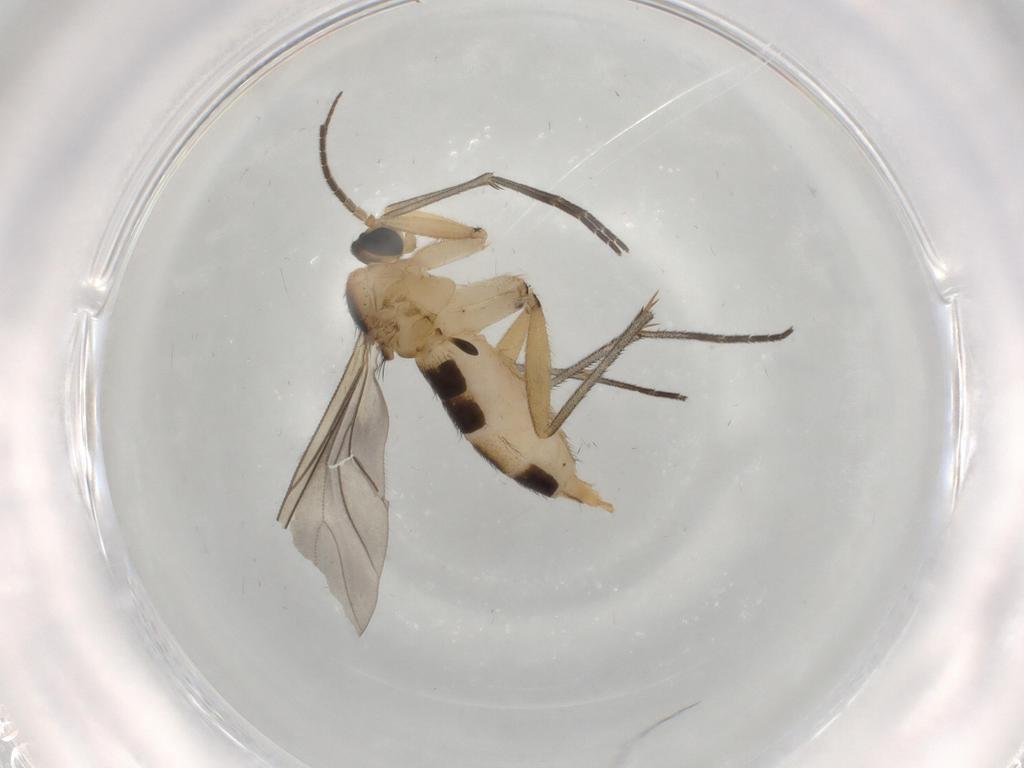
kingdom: Animalia
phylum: Arthropoda
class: Insecta
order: Diptera
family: Sciaridae
